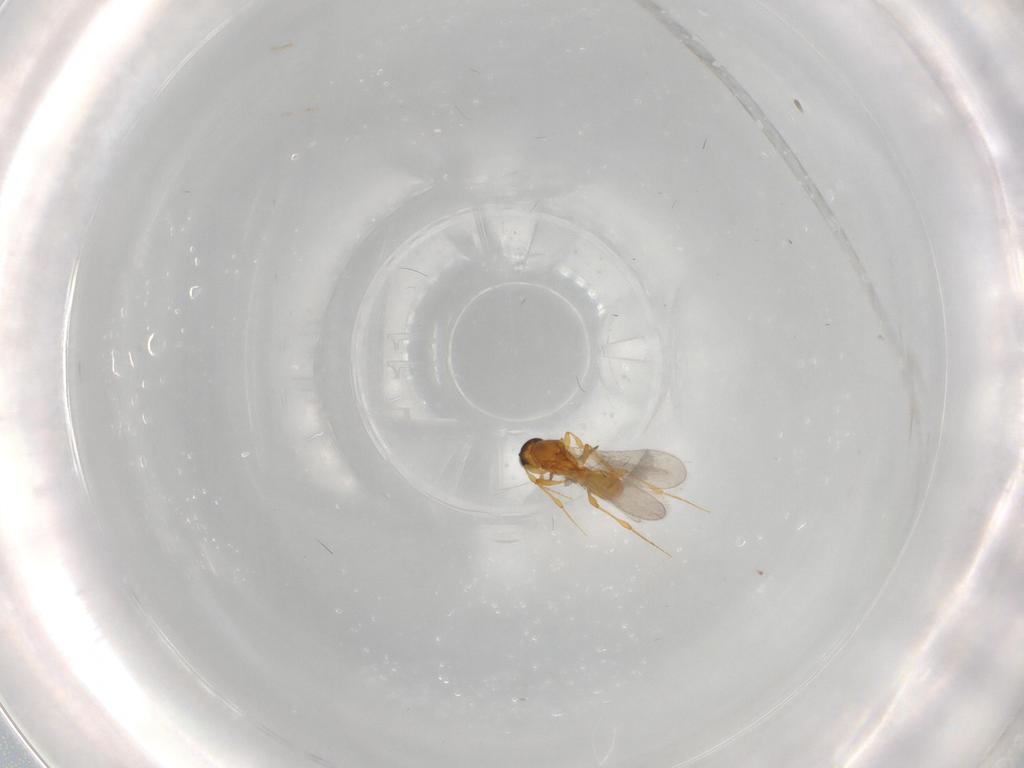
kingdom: Animalia
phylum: Arthropoda
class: Insecta
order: Hymenoptera
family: Platygastridae
